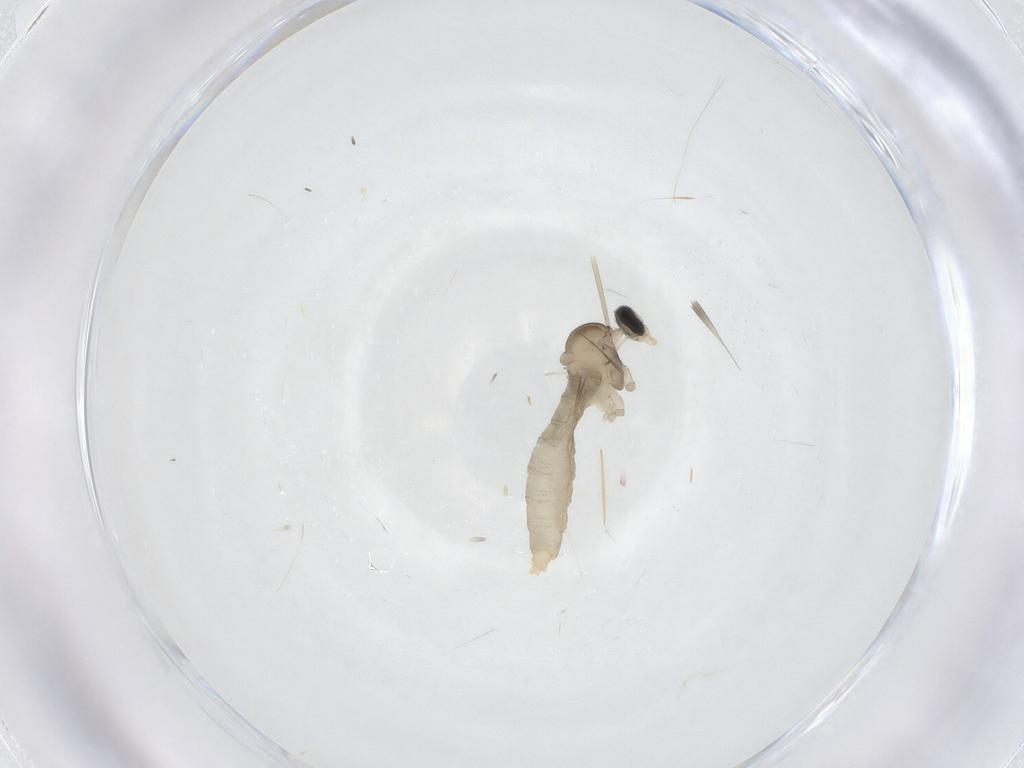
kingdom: Animalia
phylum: Arthropoda
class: Insecta
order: Diptera
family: Cecidomyiidae
